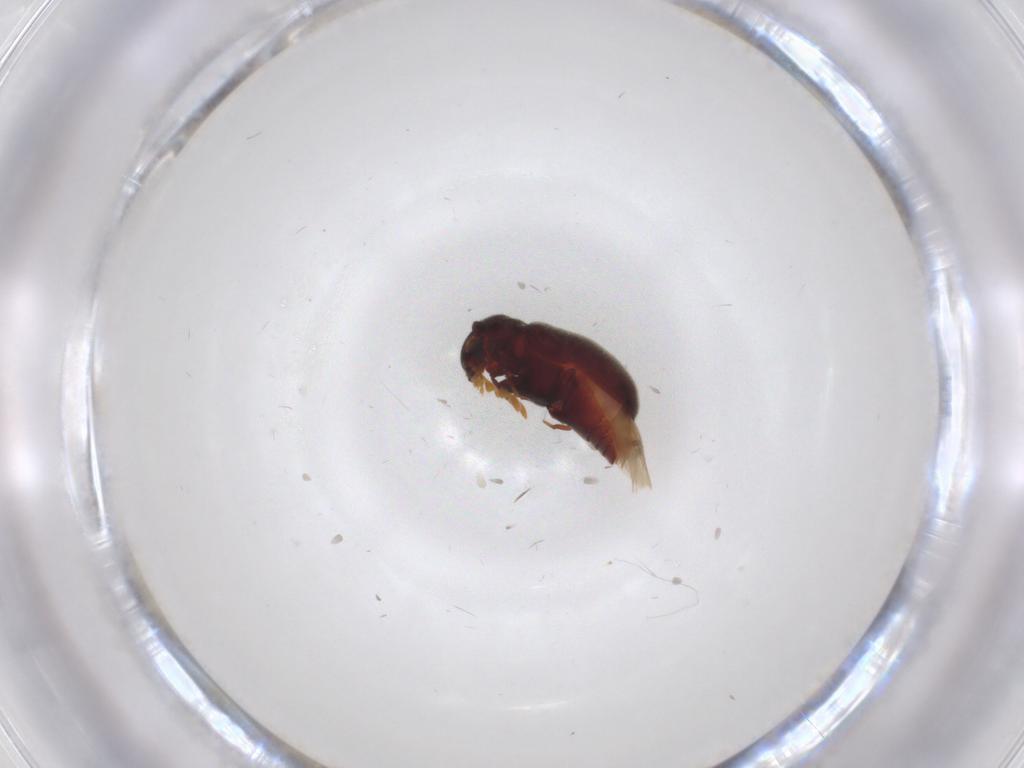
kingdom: Animalia
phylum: Arthropoda
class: Insecta
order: Coleoptera
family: Anobiidae
